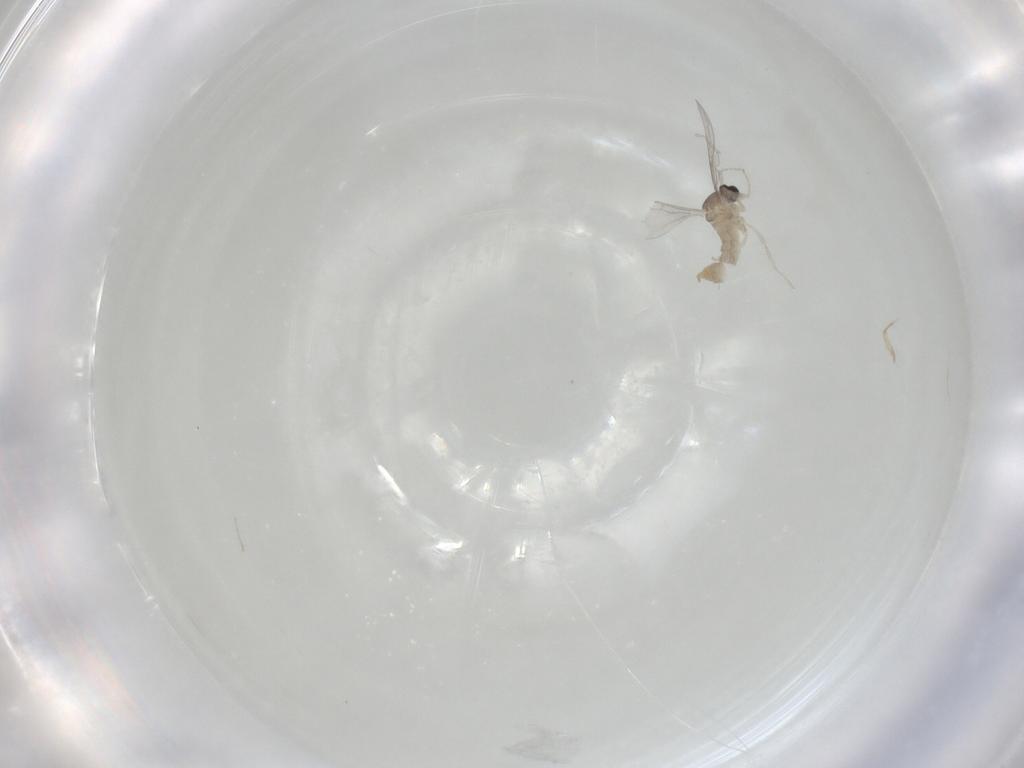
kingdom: Animalia
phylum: Arthropoda
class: Insecta
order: Diptera
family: Cecidomyiidae
